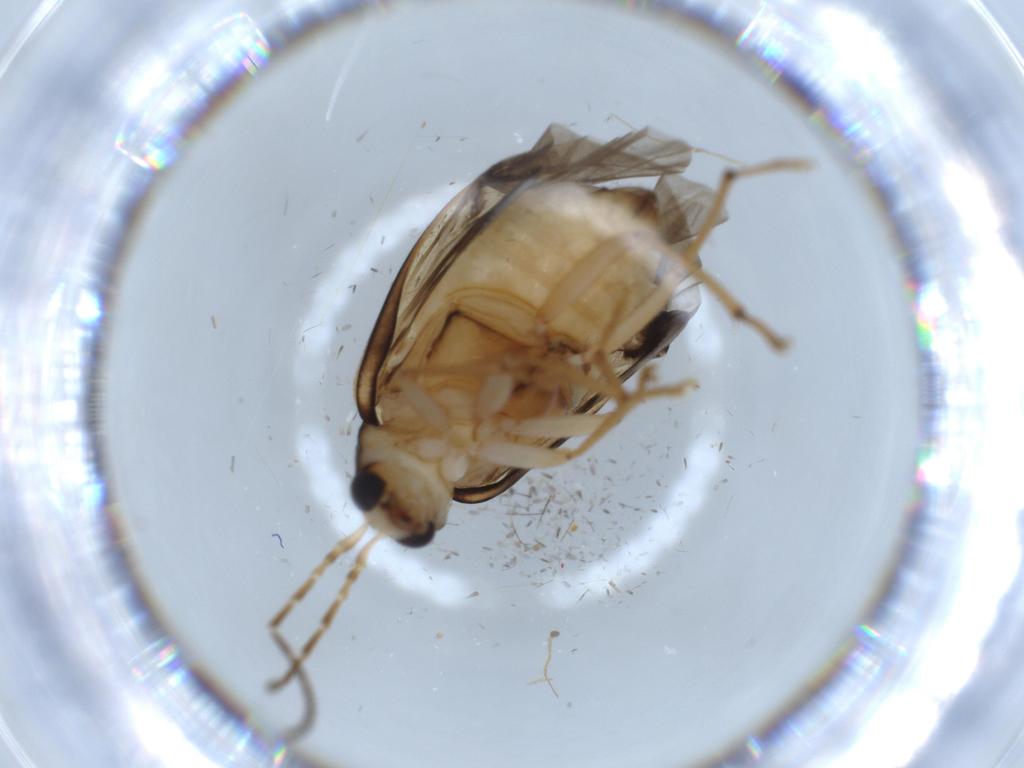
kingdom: Animalia
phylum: Arthropoda
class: Insecta
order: Coleoptera
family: Chrysomelidae
